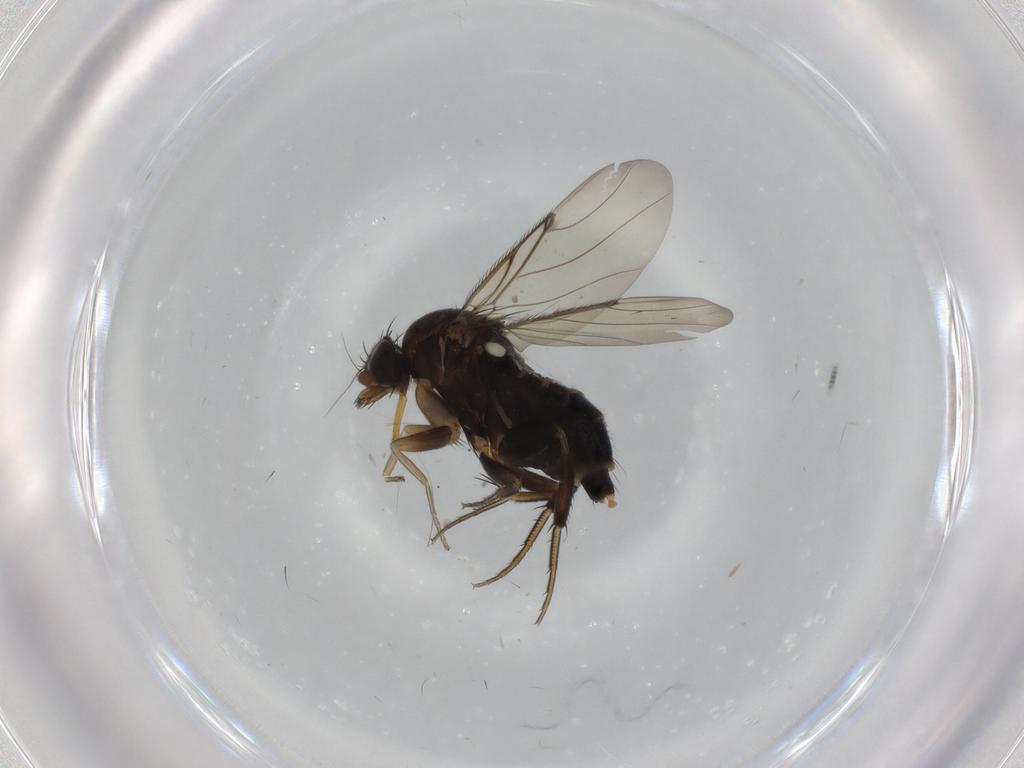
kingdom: Animalia
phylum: Arthropoda
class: Insecta
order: Diptera
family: Phoridae
